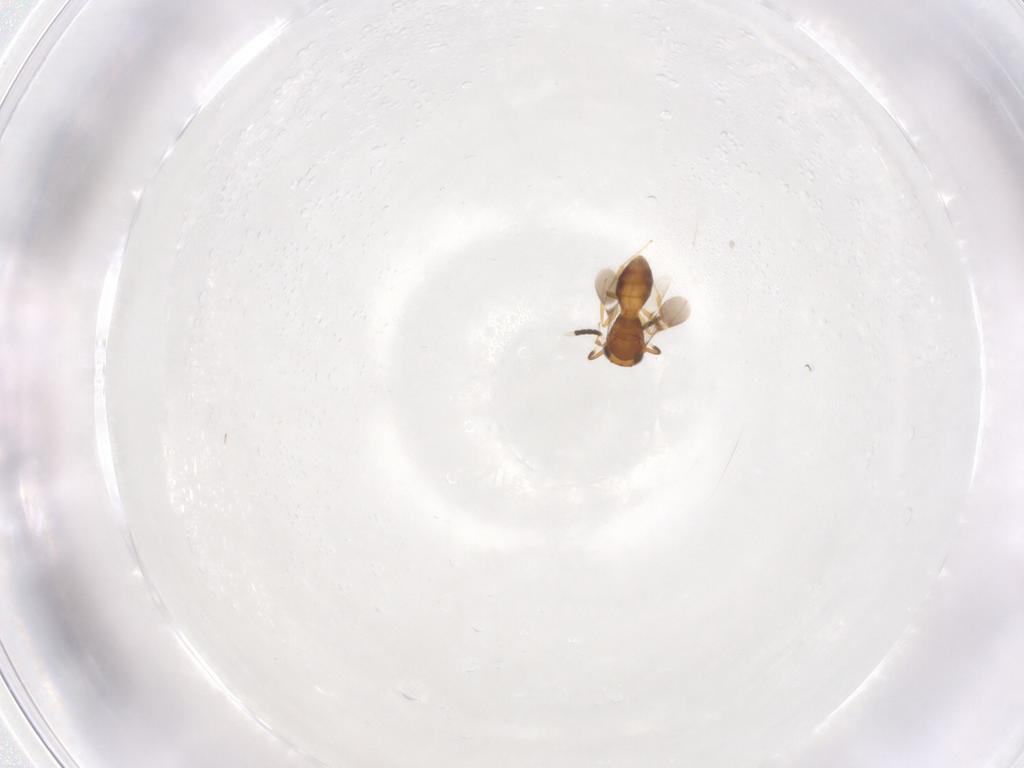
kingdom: Animalia
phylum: Arthropoda
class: Insecta
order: Hymenoptera
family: Scelionidae
